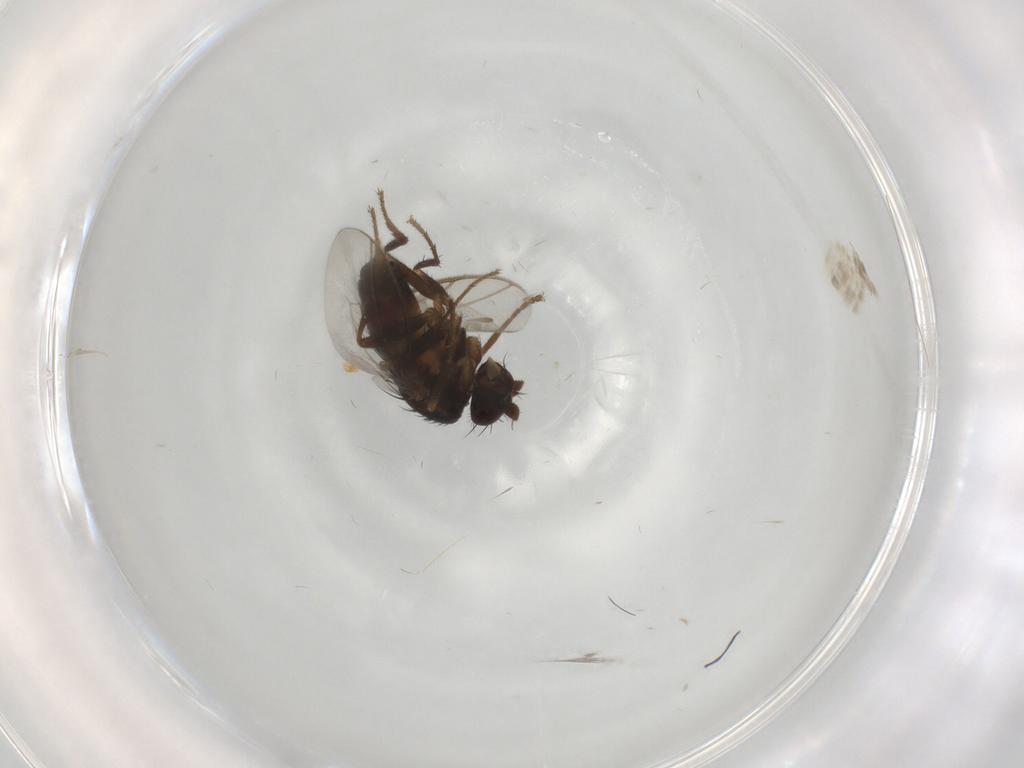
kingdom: Animalia
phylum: Arthropoda
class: Insecta
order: Diptera
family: Sphaeroceridae
